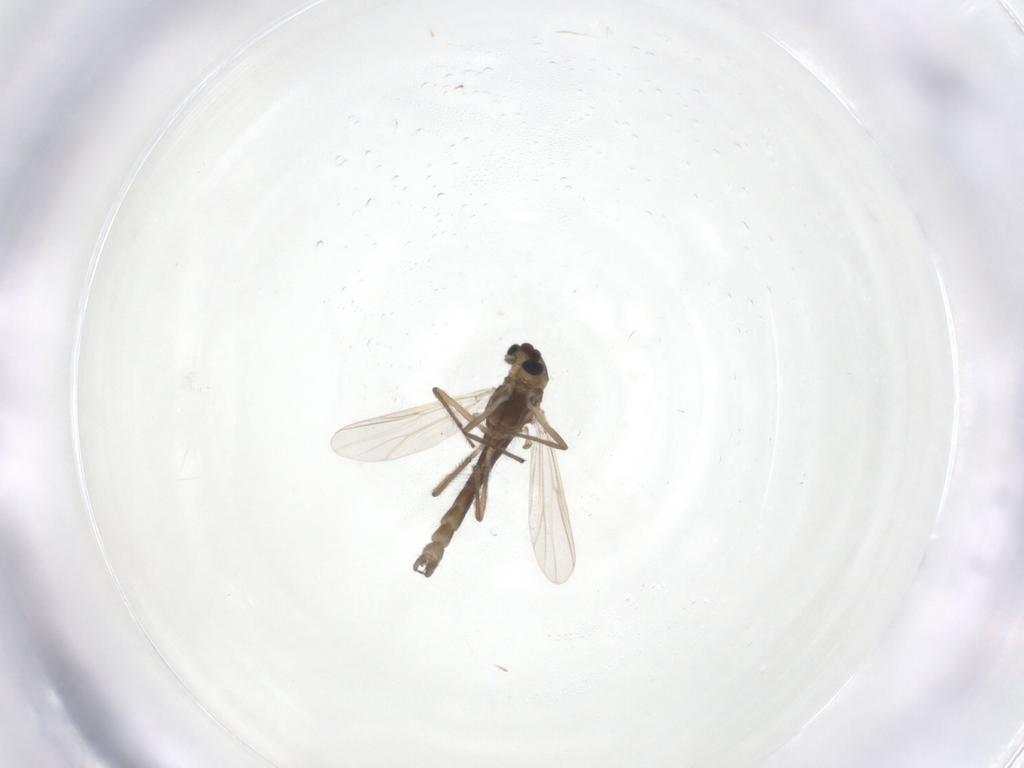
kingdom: Animalia
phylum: Arthropoda
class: Insecta
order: Diptera
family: Chironomidae
